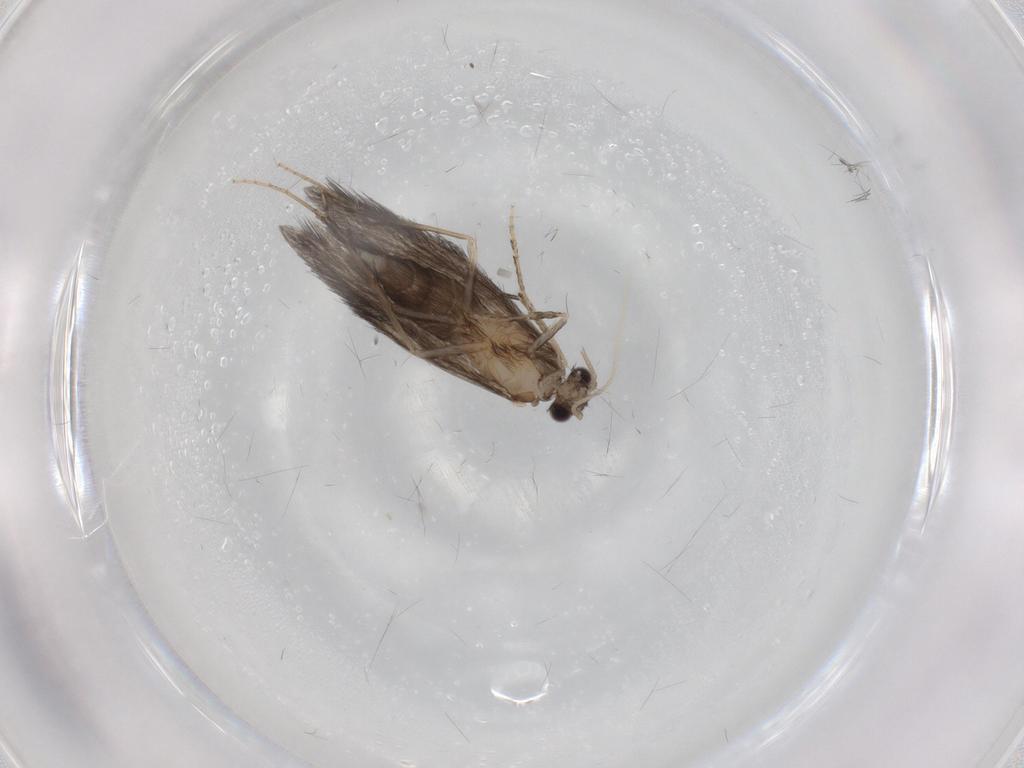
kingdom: Animalia
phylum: Arthropoda
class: Insecta
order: Trichoptera
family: Hydroptilidae
